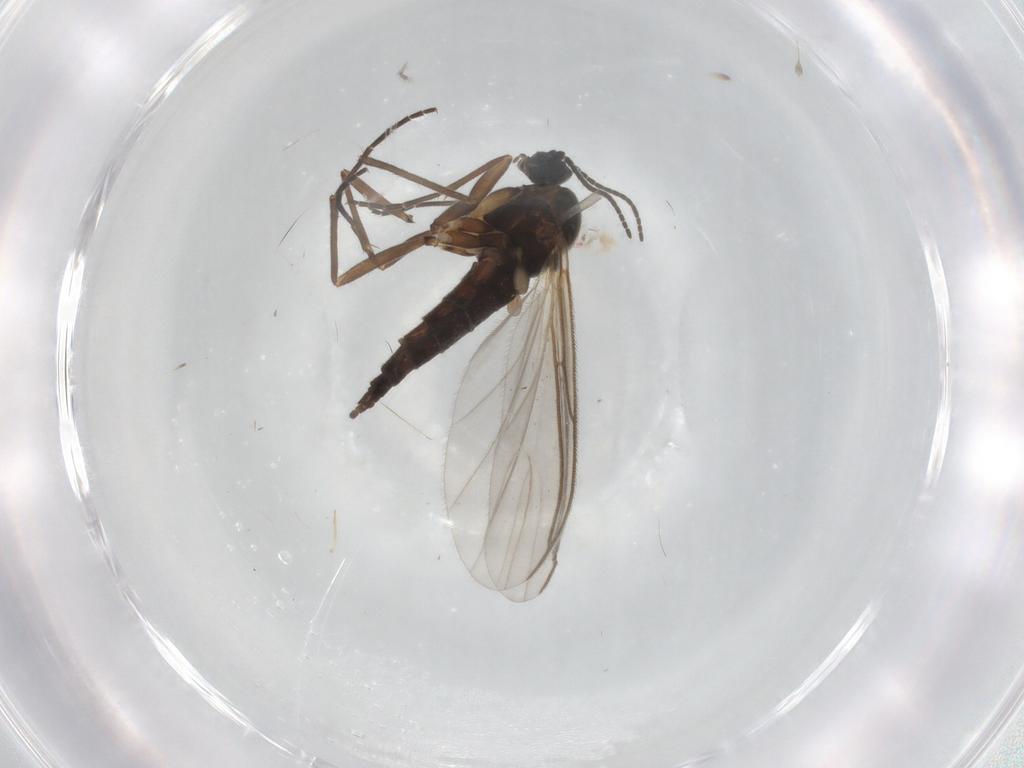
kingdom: Animalia
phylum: Arthropoda
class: Insecta
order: Diptera
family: Sciaridae
